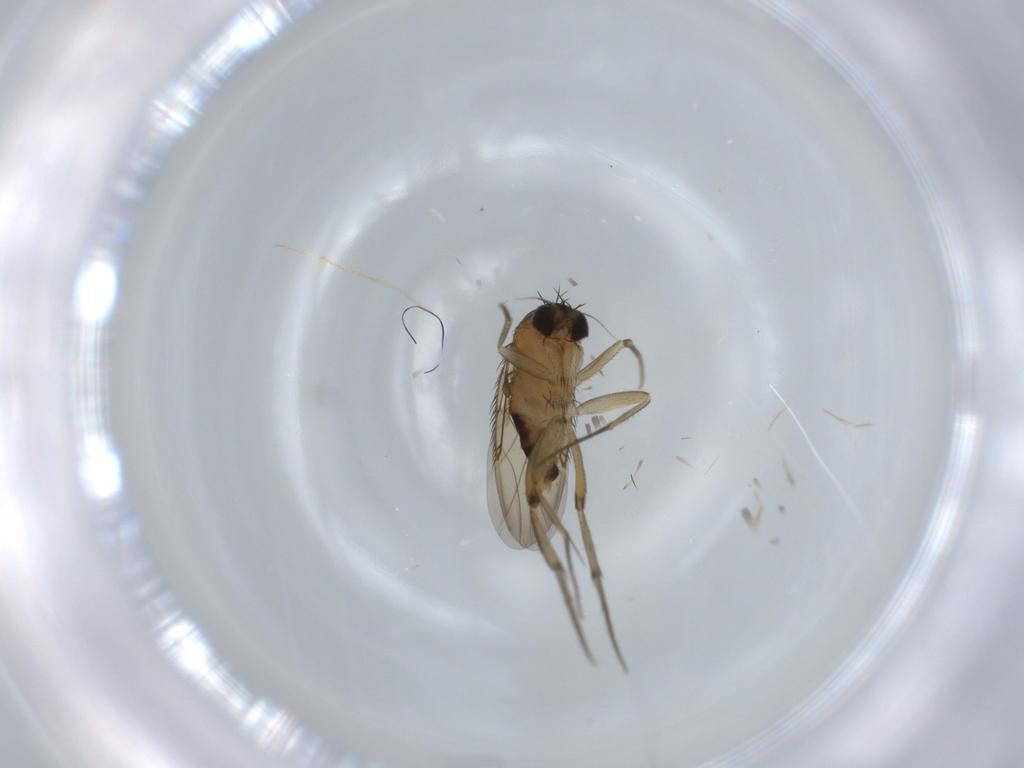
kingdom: Animalia
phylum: Arthropoda
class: Insecta
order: Diptera
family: Phoridae
